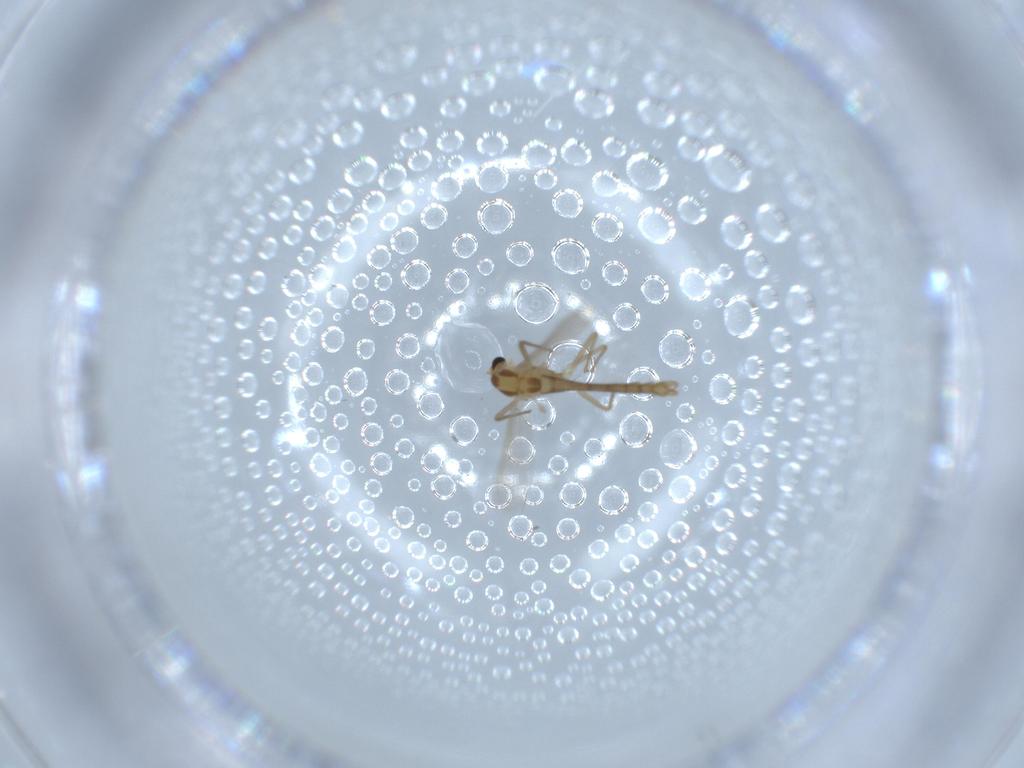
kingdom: Animalia
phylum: Arthropoda
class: Insecta
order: Diptera
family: Chironomidae
